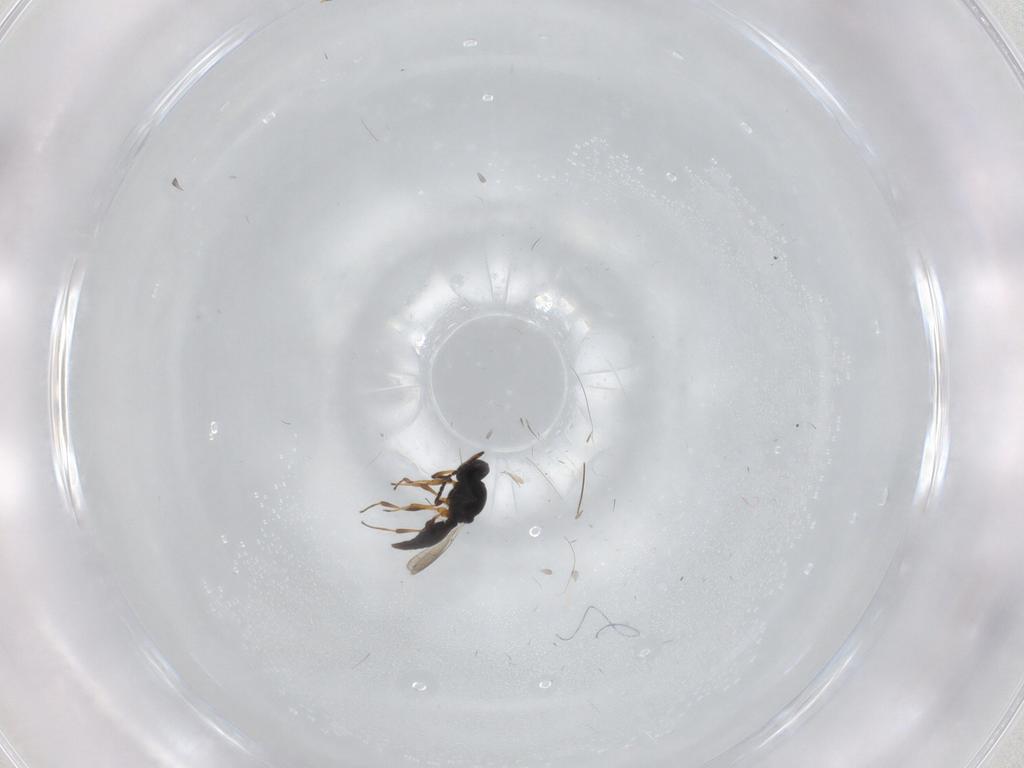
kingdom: Animalia
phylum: Arthropoda
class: Insecta
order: Hymenoptera
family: Platygastridae
